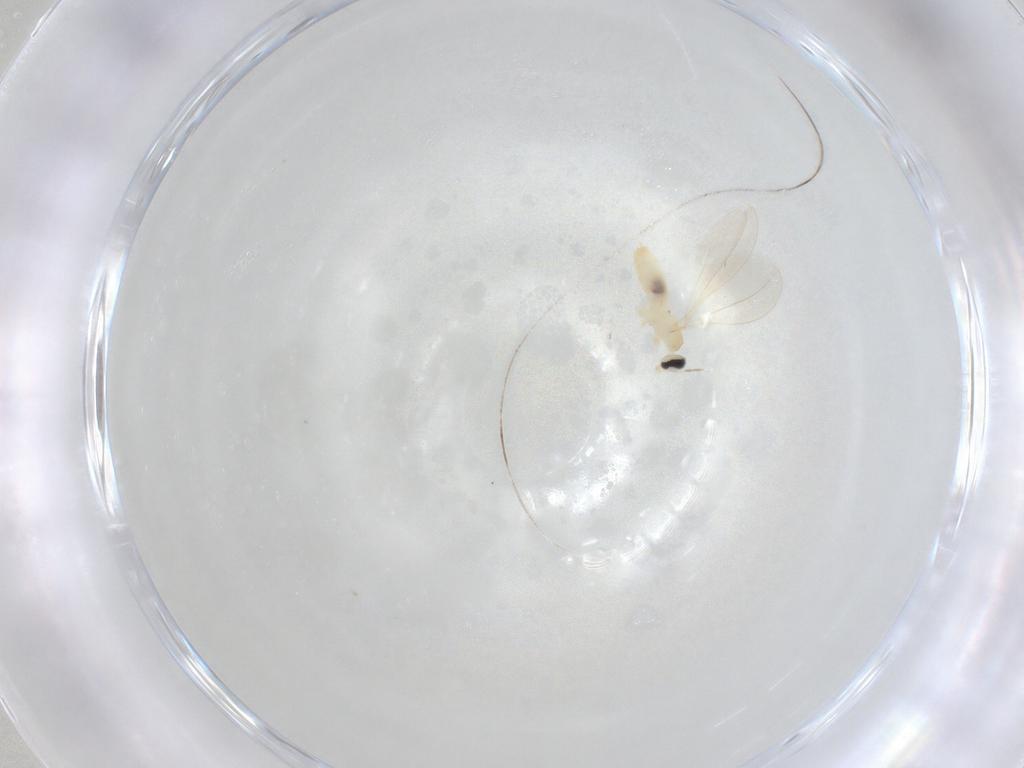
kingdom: Animalia
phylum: Arthropoda
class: Insecta
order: Diptera
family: Cecidomyiidae
